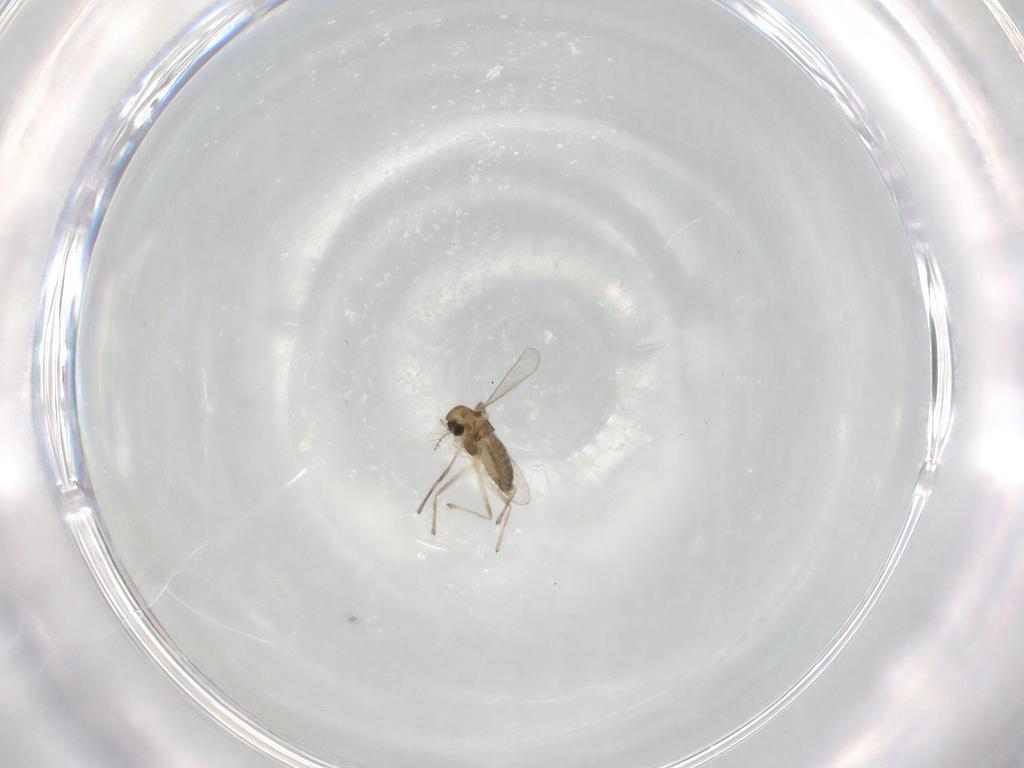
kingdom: Animalia
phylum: Arthropoda
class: Insecta
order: Diptera
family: Chironomidae
